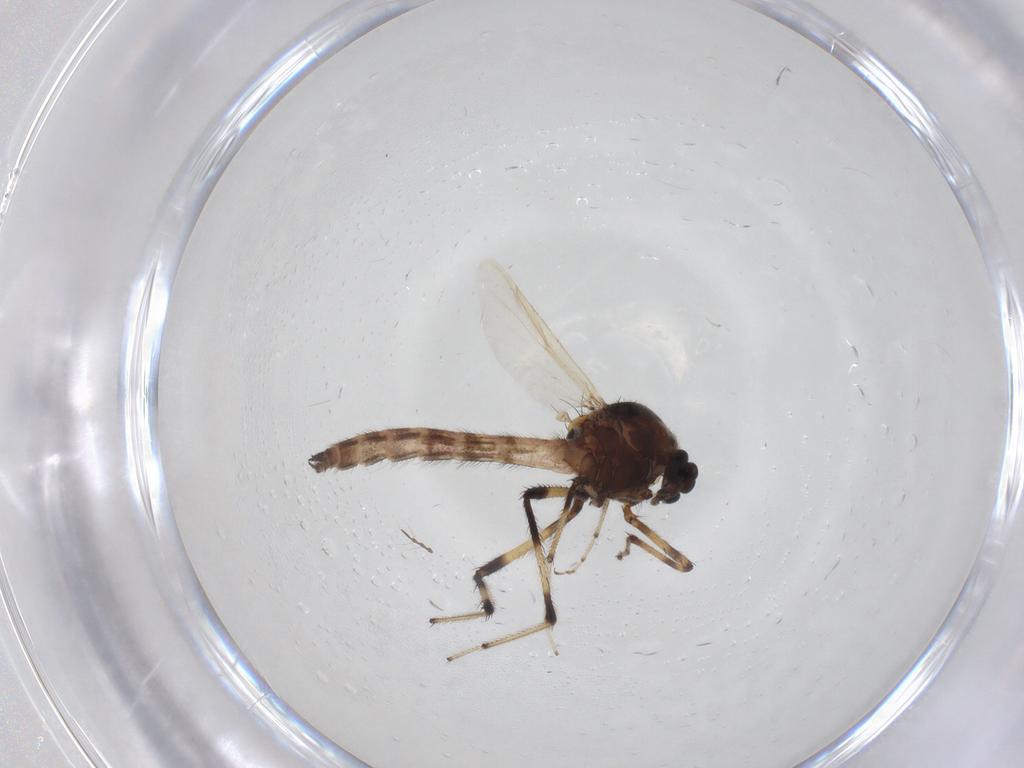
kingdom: Animalia
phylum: Arthropoda
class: Insecta
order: Diptera
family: Ceratopogonidae
